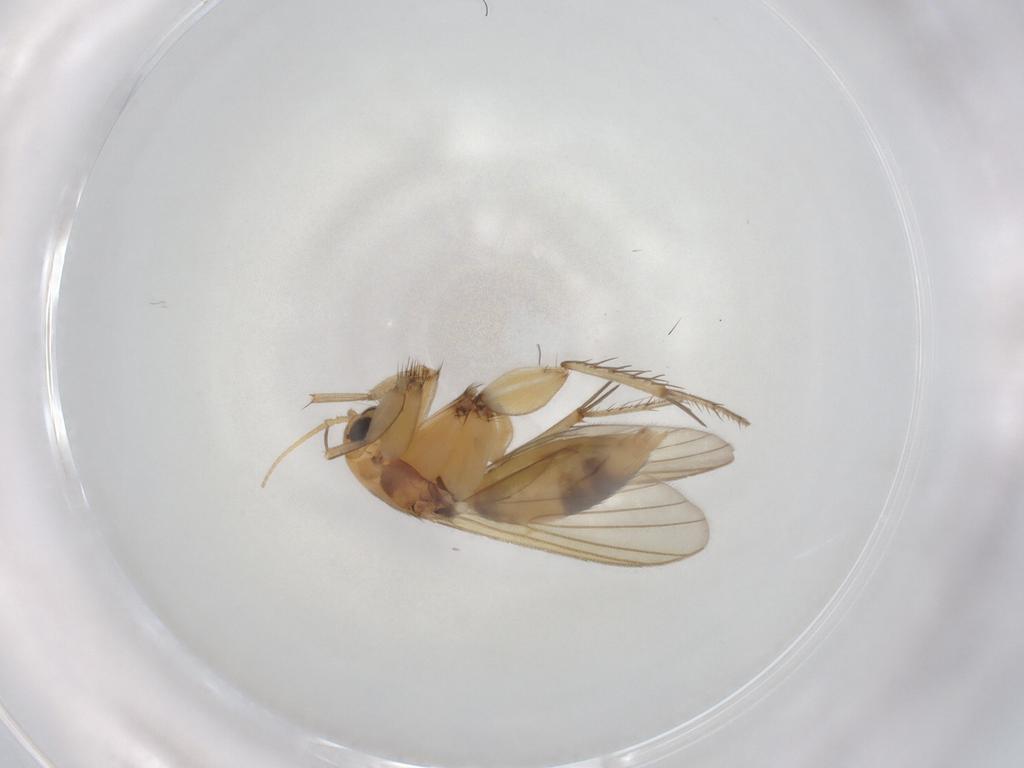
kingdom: Animalia
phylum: Arthropoda
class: Insecta
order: Diptera
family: Mycetophilidae
